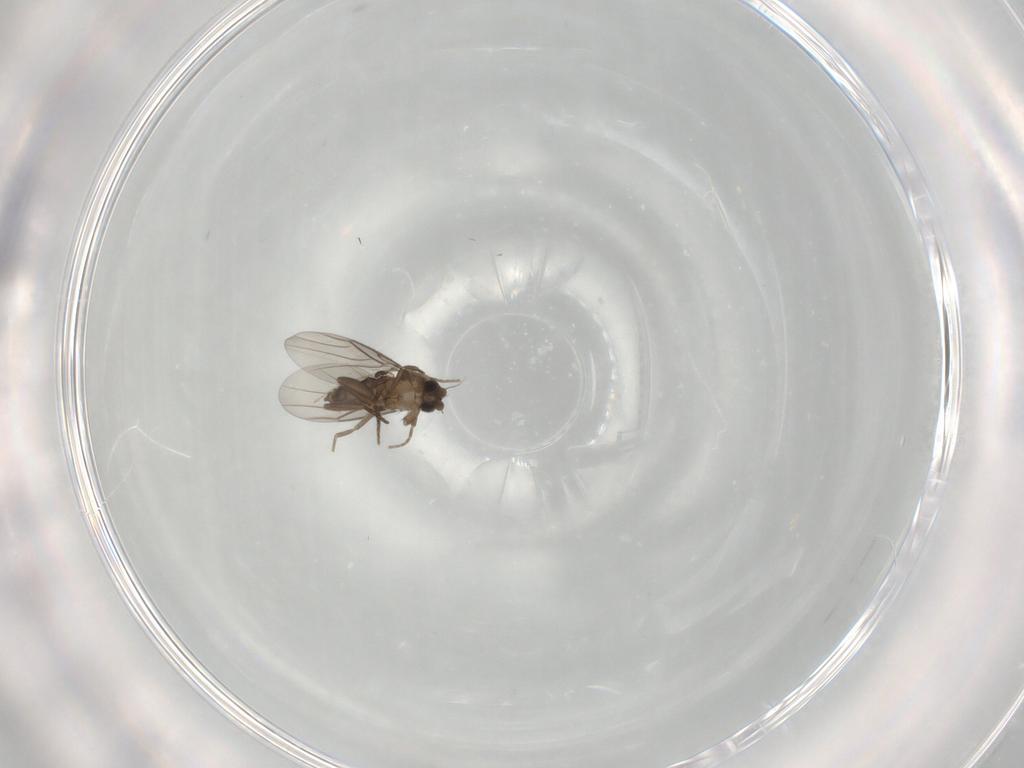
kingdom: Animalia
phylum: Arthropoda
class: Insecta
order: Diptera
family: Phoridae
